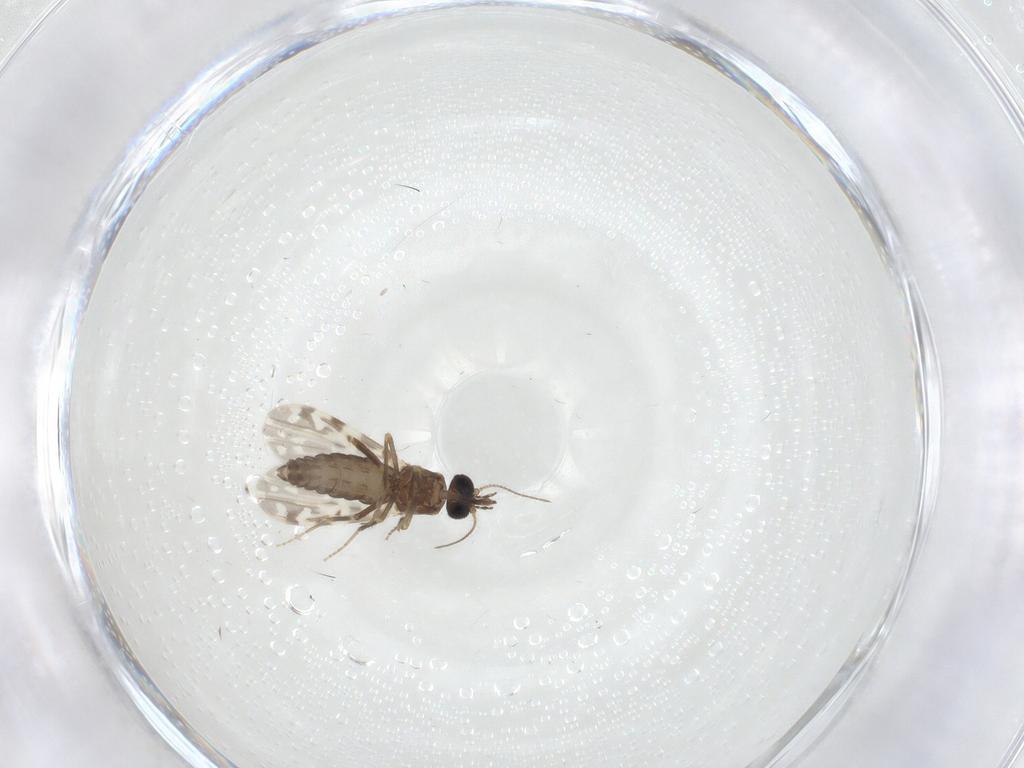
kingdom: Animalia
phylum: Arthropoda
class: Insecta
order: Diptera
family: Ceratopogonidae
